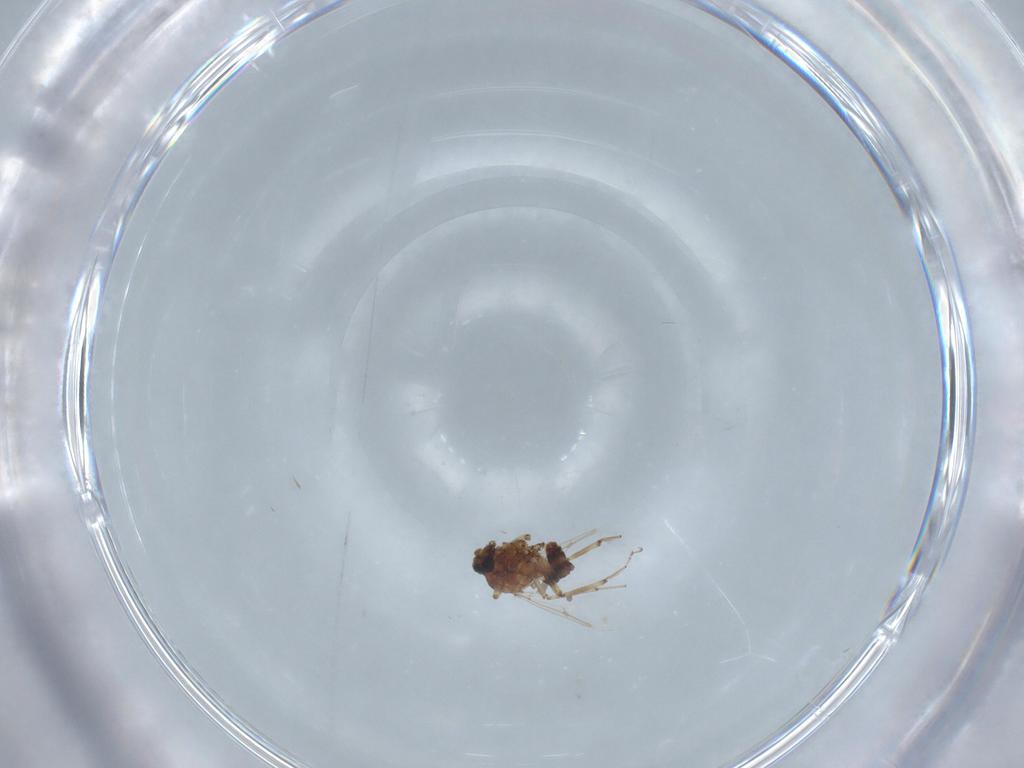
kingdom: Animalia
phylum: Arthropoda
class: Insecta
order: Diptera
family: Ceratopogonidae
